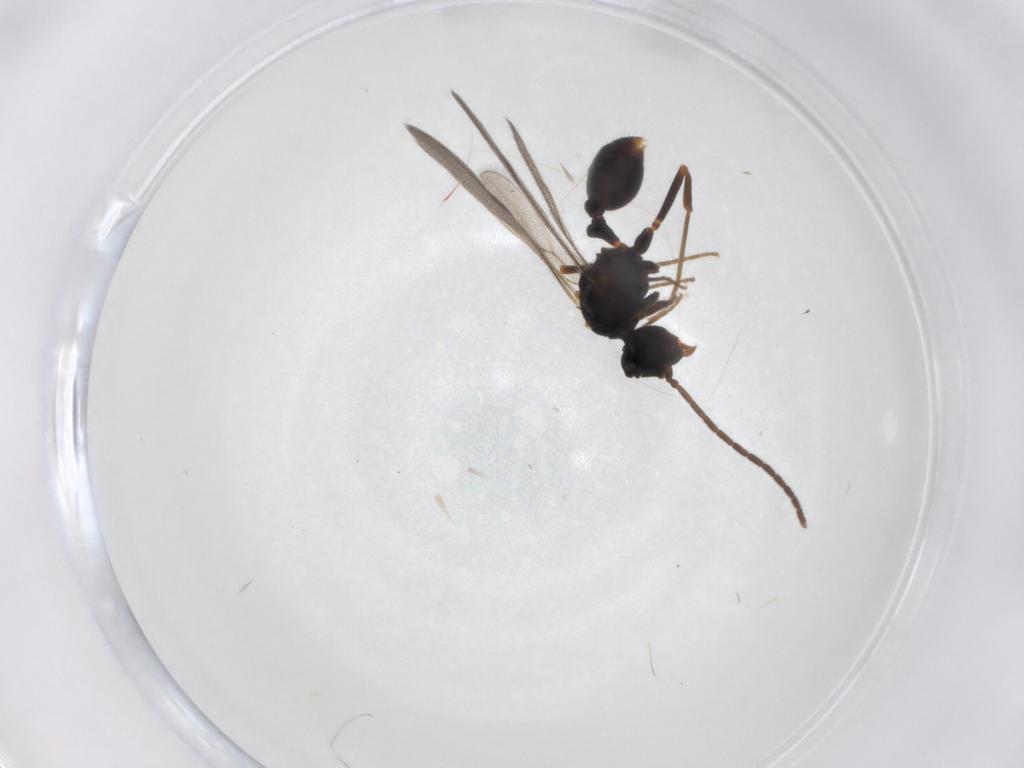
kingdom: Animalia
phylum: Arthropoda
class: Insecta
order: Hymenoptera
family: Formicidae
